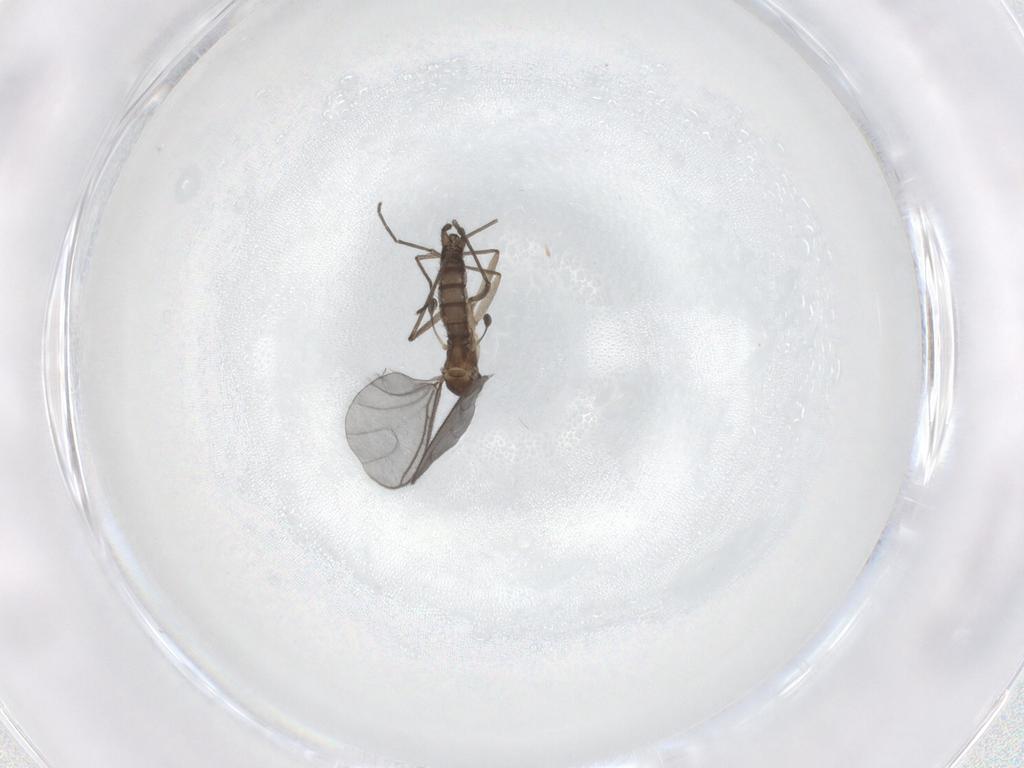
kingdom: Animalia
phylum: Arthropoda
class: Insecta
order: Diptera
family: Sciaridae
